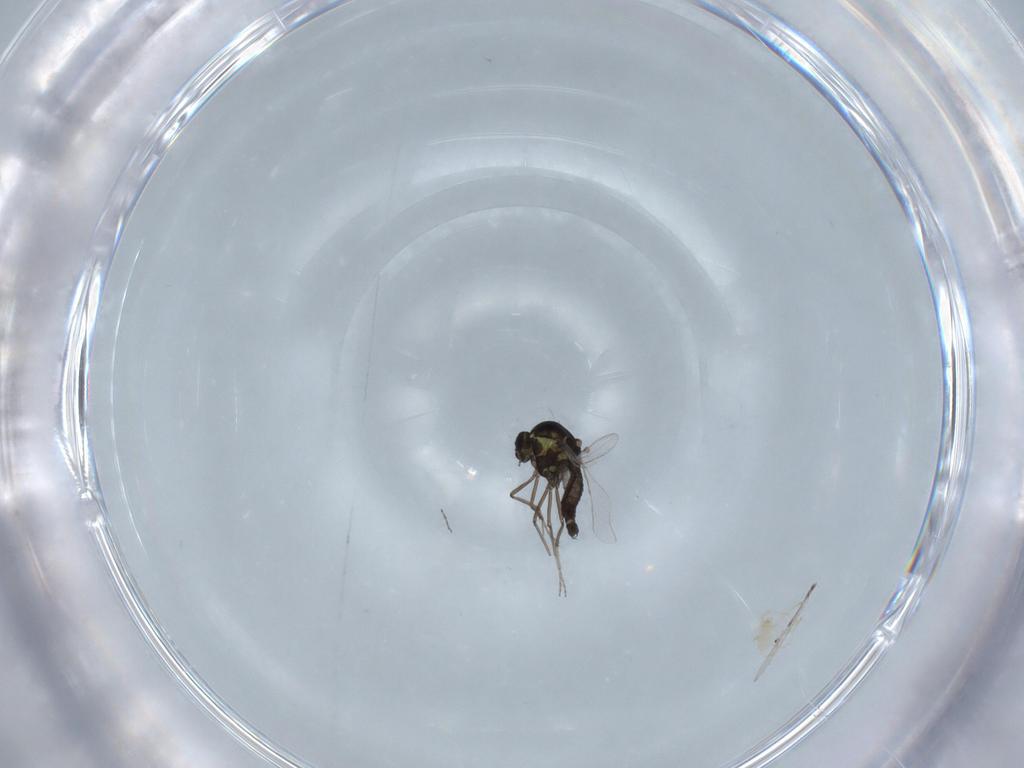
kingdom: Animalia
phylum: Arthropoda
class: Insecta
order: Diptera
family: Ceratopogonidae
